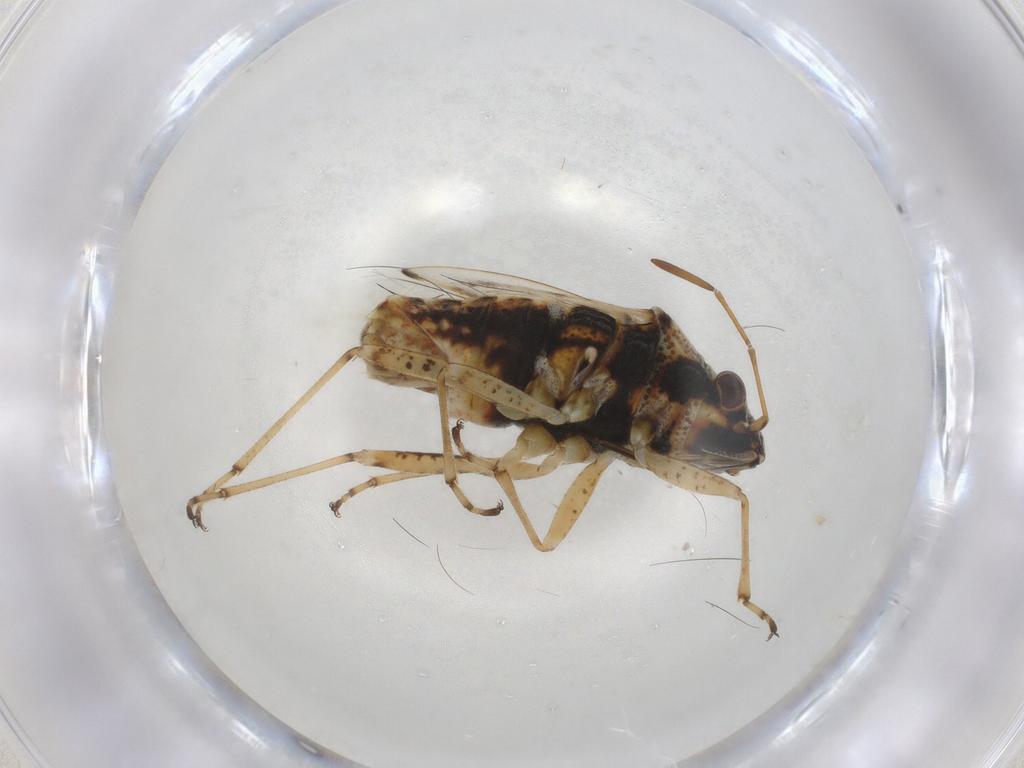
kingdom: Animalia
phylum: Arthropoda
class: Insecta
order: Hemiptera
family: Lygaeidae
